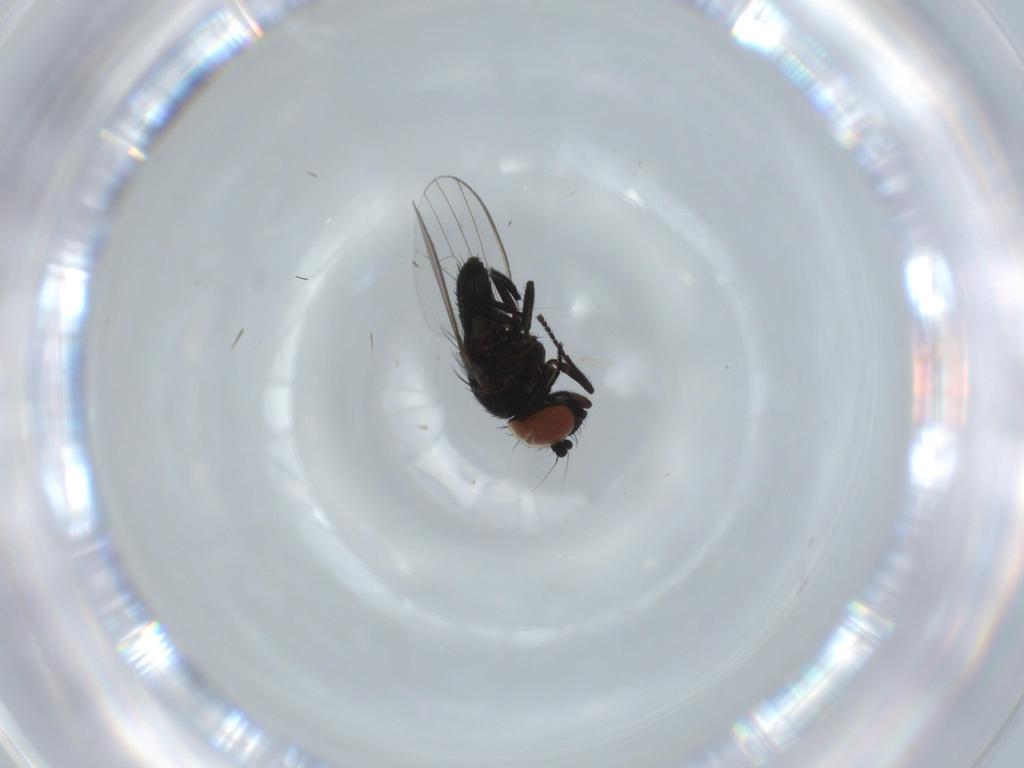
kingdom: Animalia
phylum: Arthropoda
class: Insecta
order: Diptera
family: Milichiidae
